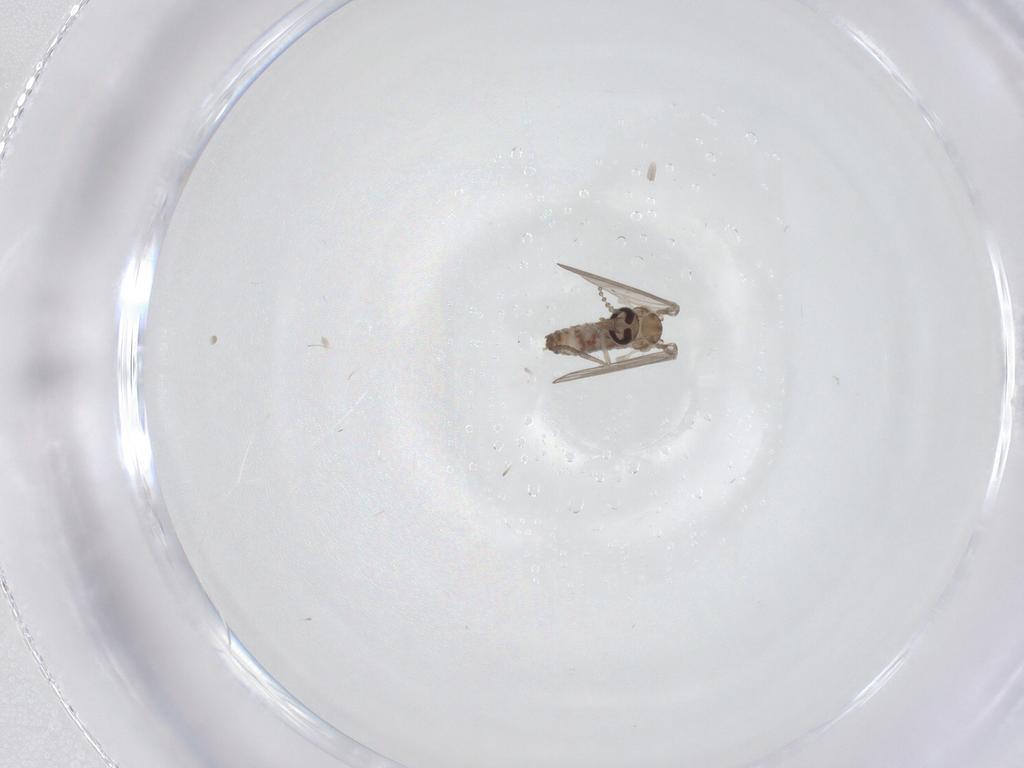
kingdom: Animalia
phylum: Arthropoda
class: Insecta
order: Diptera
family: Psychodidae
